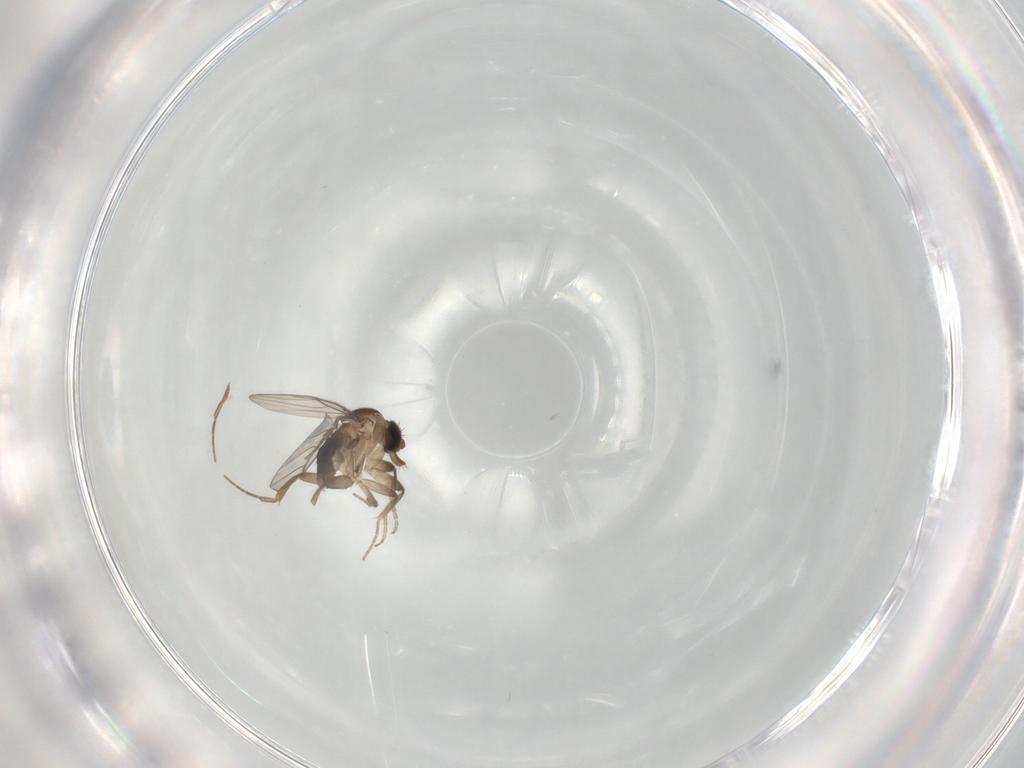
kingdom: Animalia
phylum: Arthropoda
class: Insecta
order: Diptera
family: Phoridae
